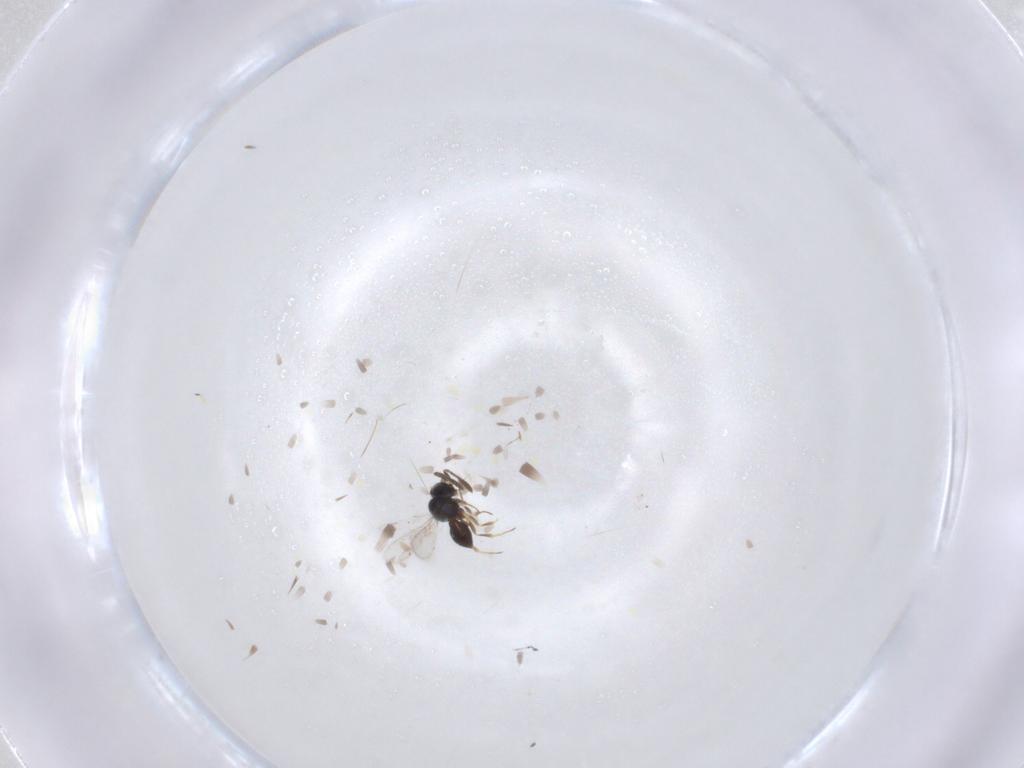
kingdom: Animalia
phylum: Arthropoda
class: Insecta
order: Hymenoptera
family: Scelionidae
